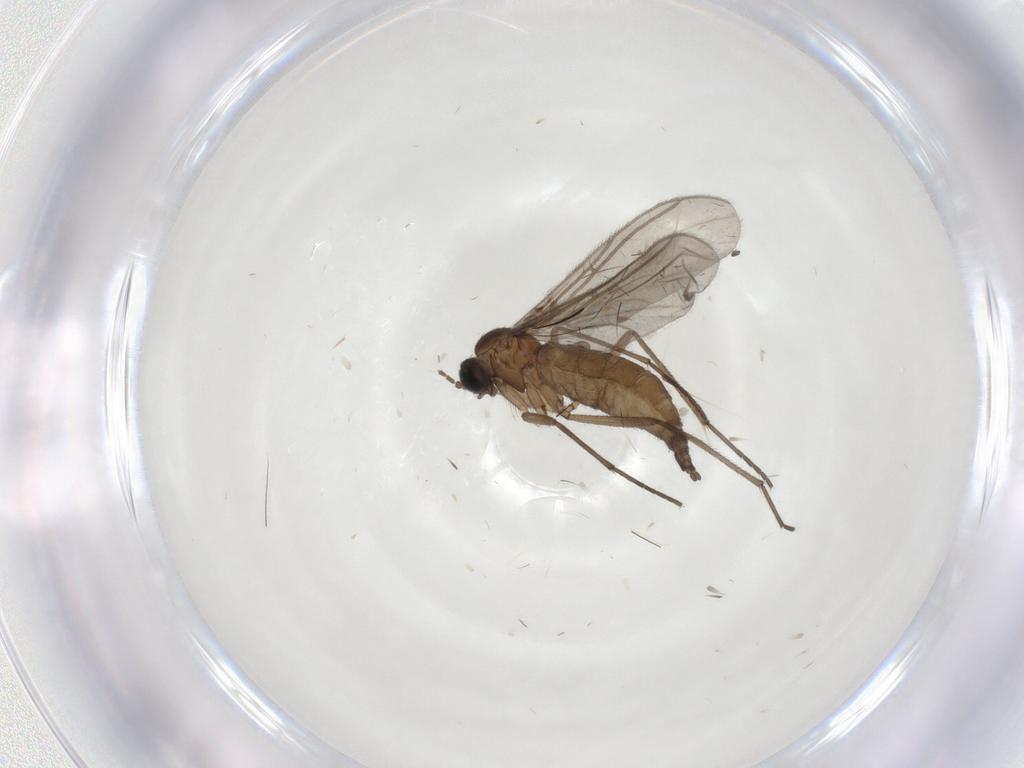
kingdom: Animalia
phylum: Arthropoda
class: Insecta
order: Diptera
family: Sciaridae
